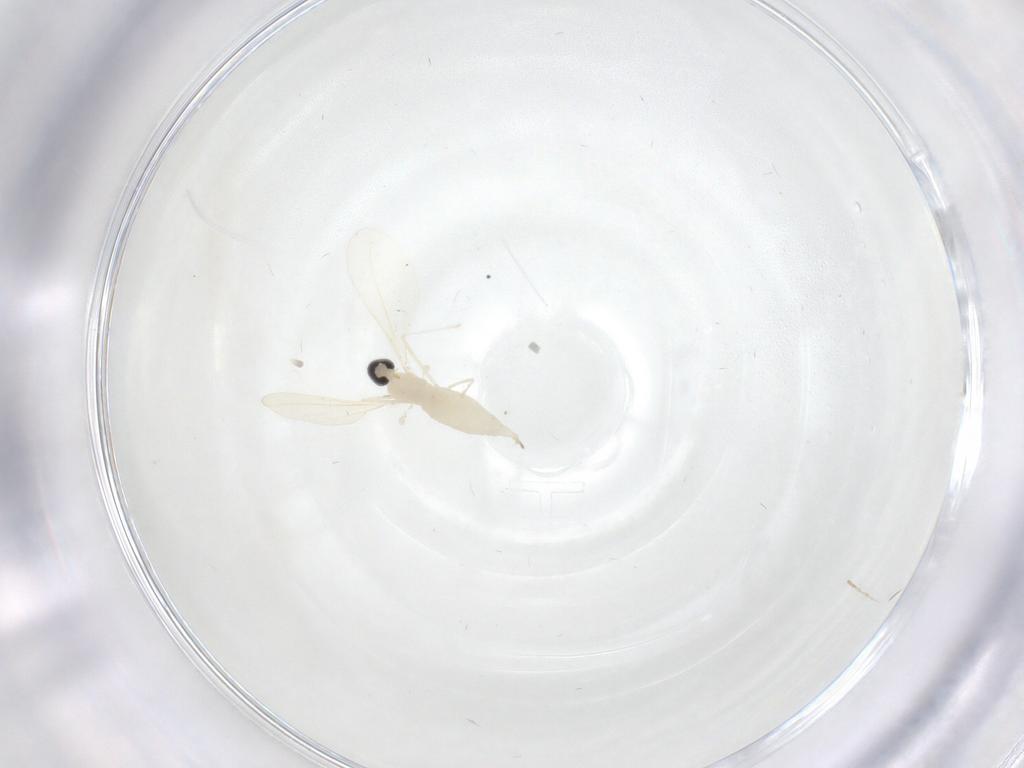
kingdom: Animalia
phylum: Arthropoda
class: Insecta
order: Diptera
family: Cecidomyiidae
